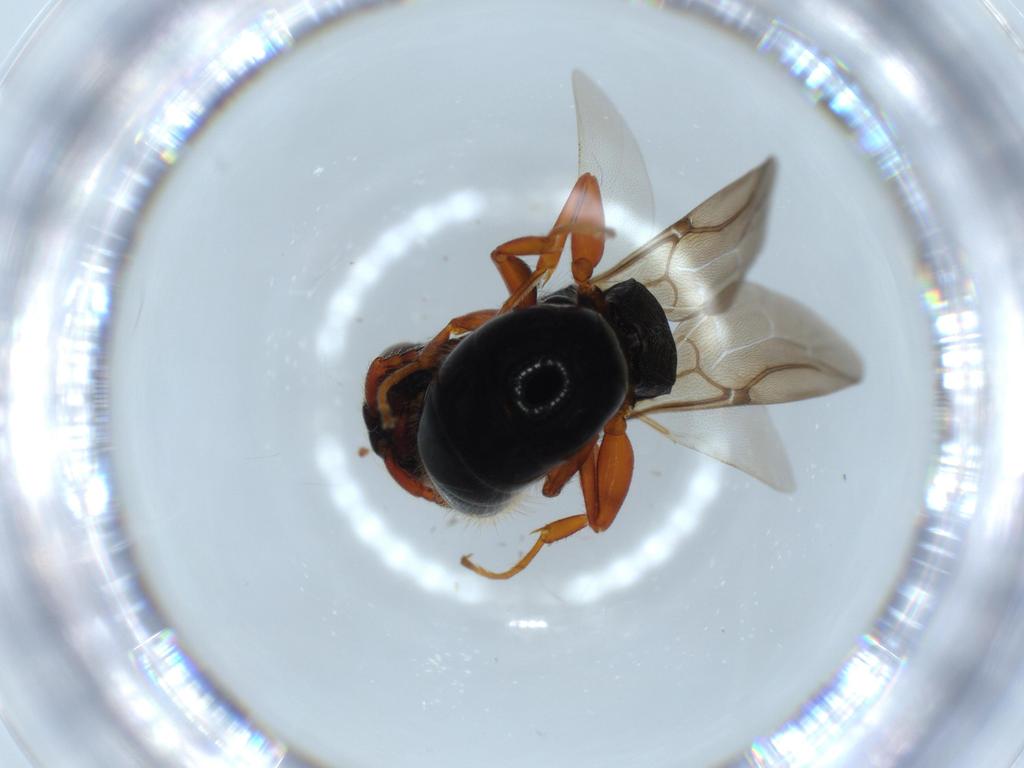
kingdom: Animalia
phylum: Arthropoda
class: Insecta
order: Hymenoptera
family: Bethylidae
